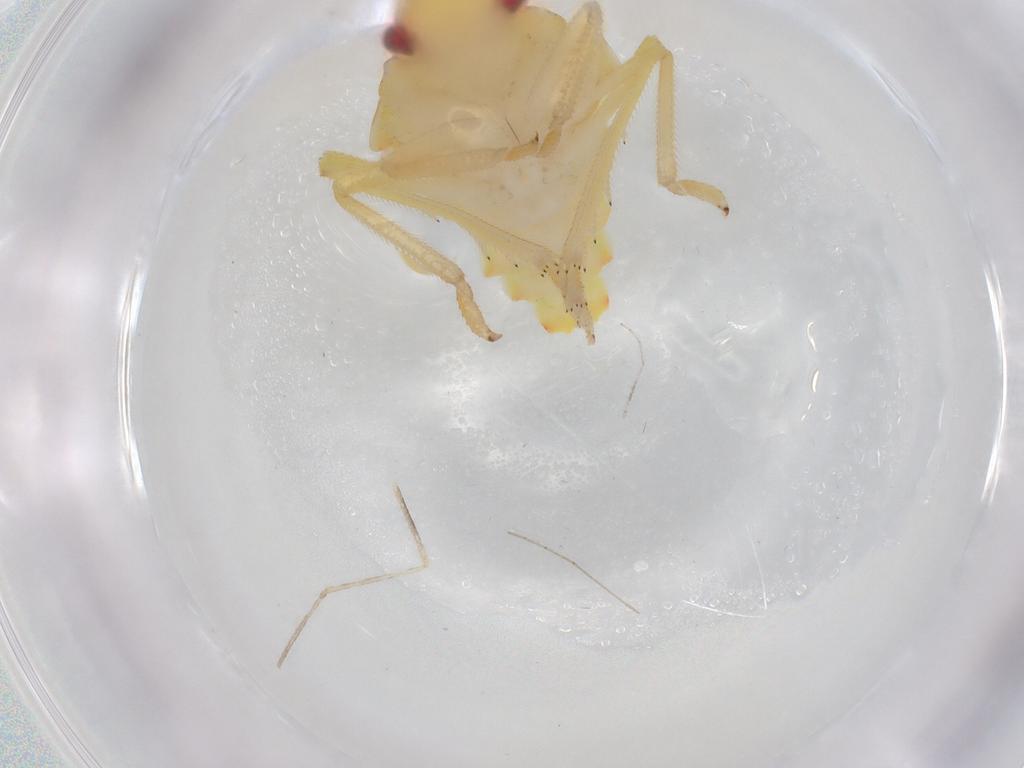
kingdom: Animalia
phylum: Arthropoda
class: Insecta
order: Hemiptera
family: Tropiduchidae
